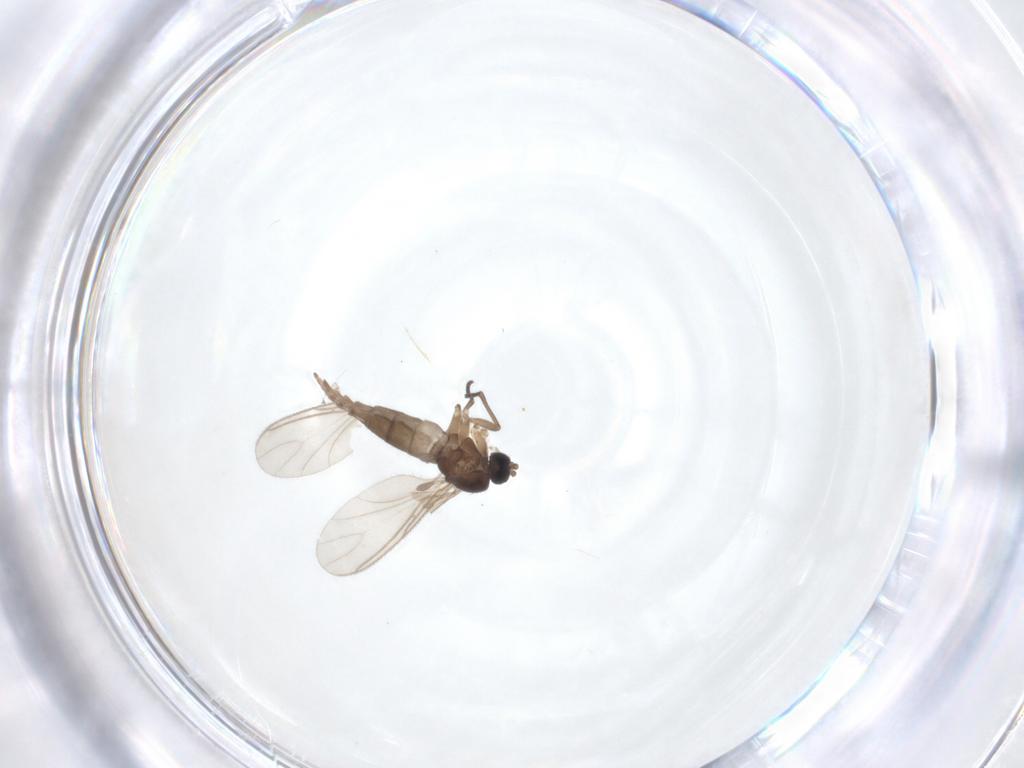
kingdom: Animalia
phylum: Arthropoda
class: Insecta
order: Diptera
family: Sciaridae
